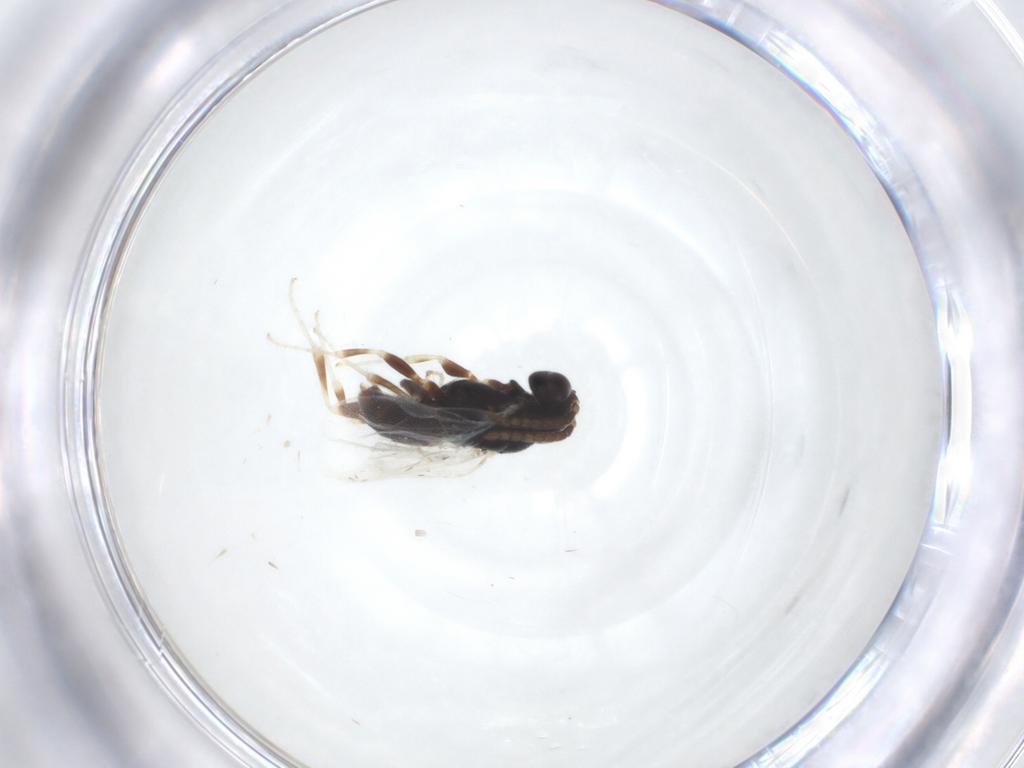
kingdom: Animalia
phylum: Arthropoda
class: Insecta
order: Hymenoptera
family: Dryinidae
